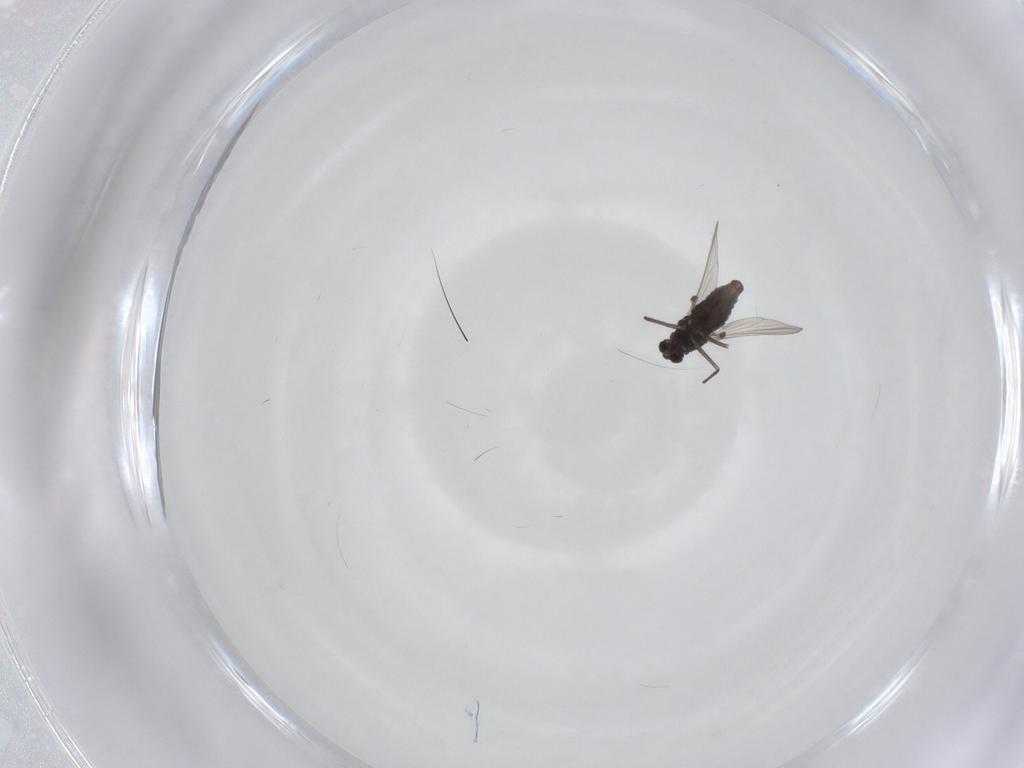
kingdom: Animalia
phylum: Arthropoda
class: Insecta
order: Diptera
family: Chironomidae
